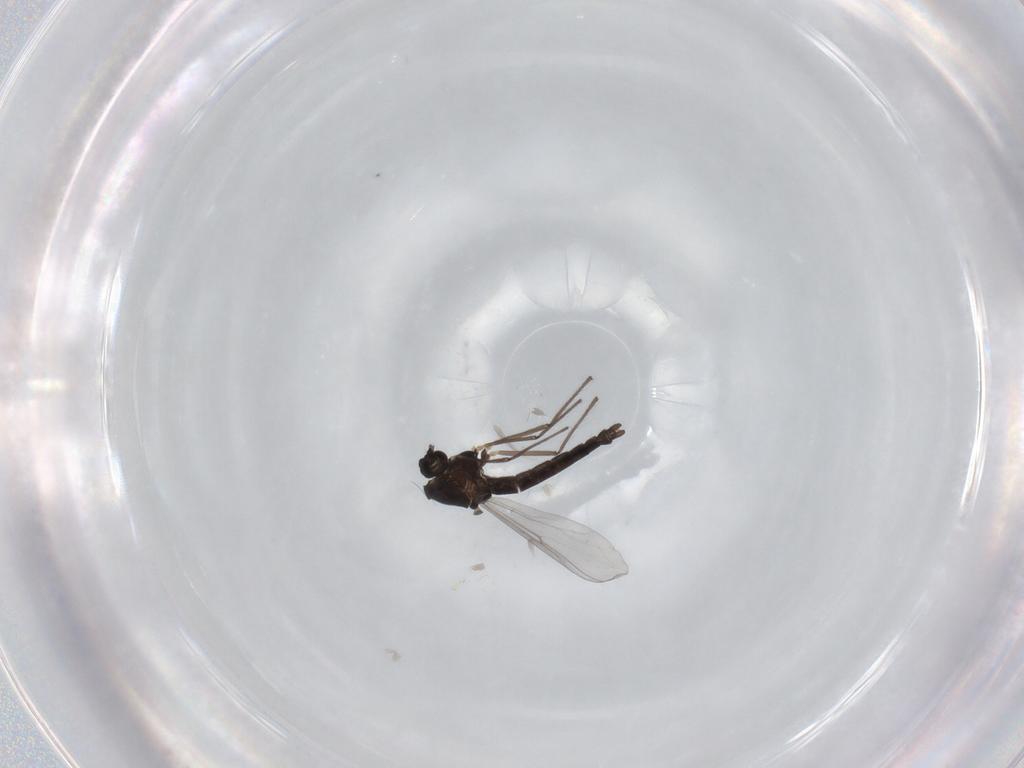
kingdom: Animalia
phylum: Arthropoda
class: Insecta
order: Diptera
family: Chironomidae
